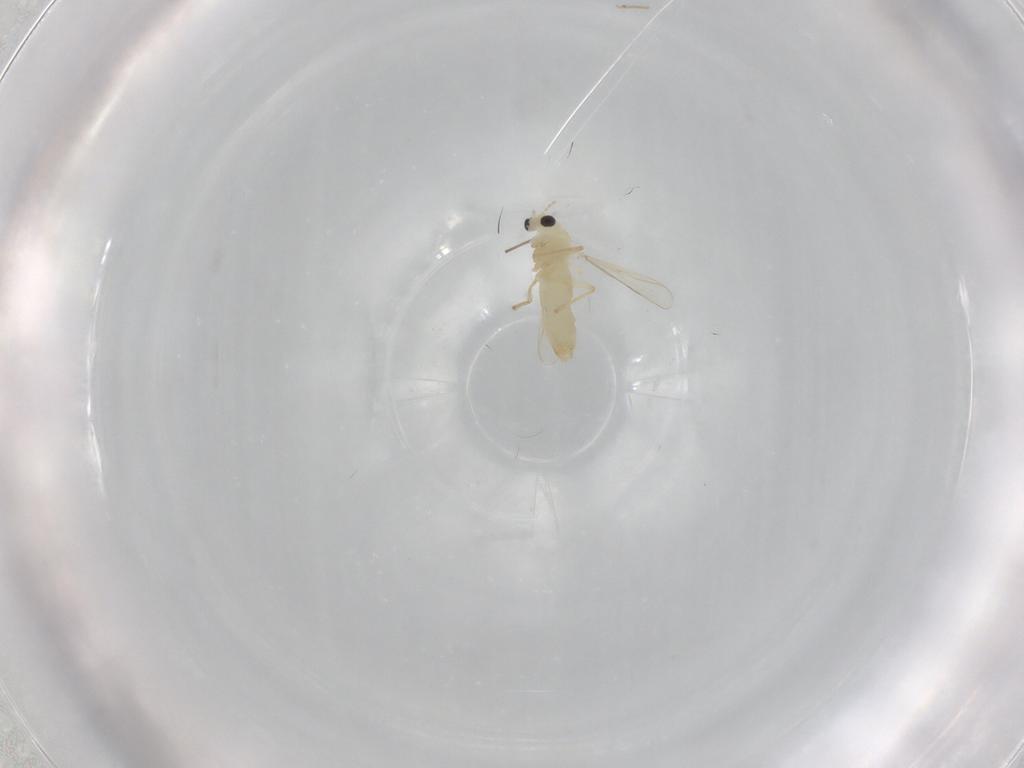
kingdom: Animalia
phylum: Arthropoda
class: Insecta
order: Diptera
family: Chironomidae
